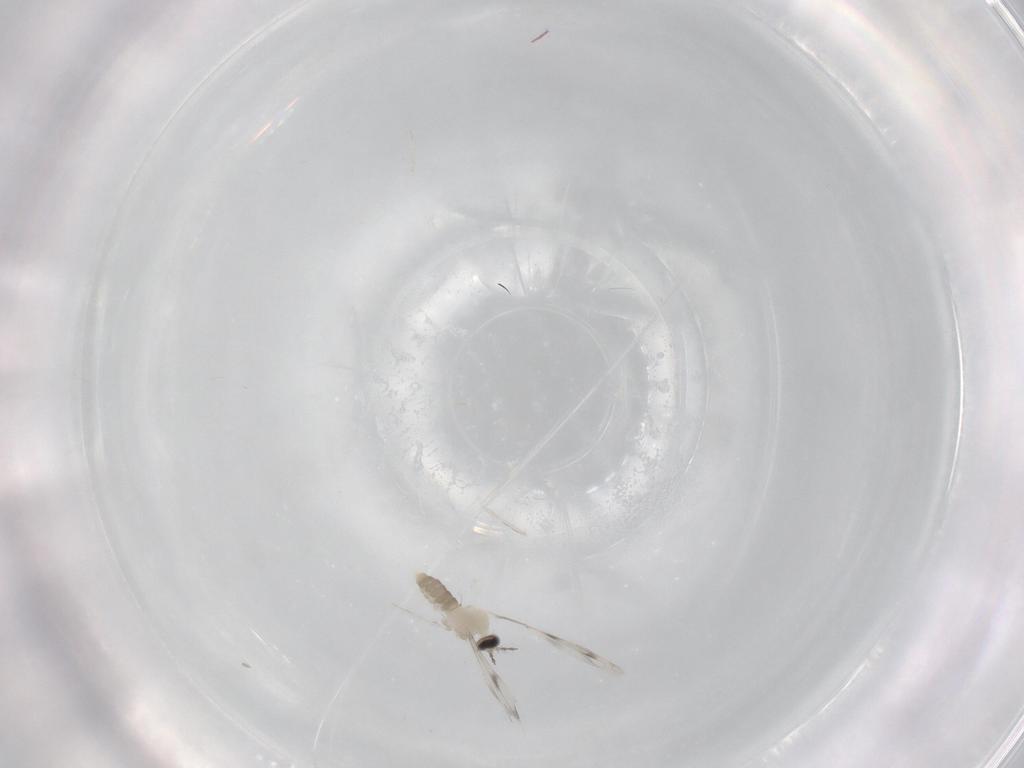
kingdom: Animalia
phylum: Arthropoda
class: Insecta
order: Diptera
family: Cecidomyiidae
